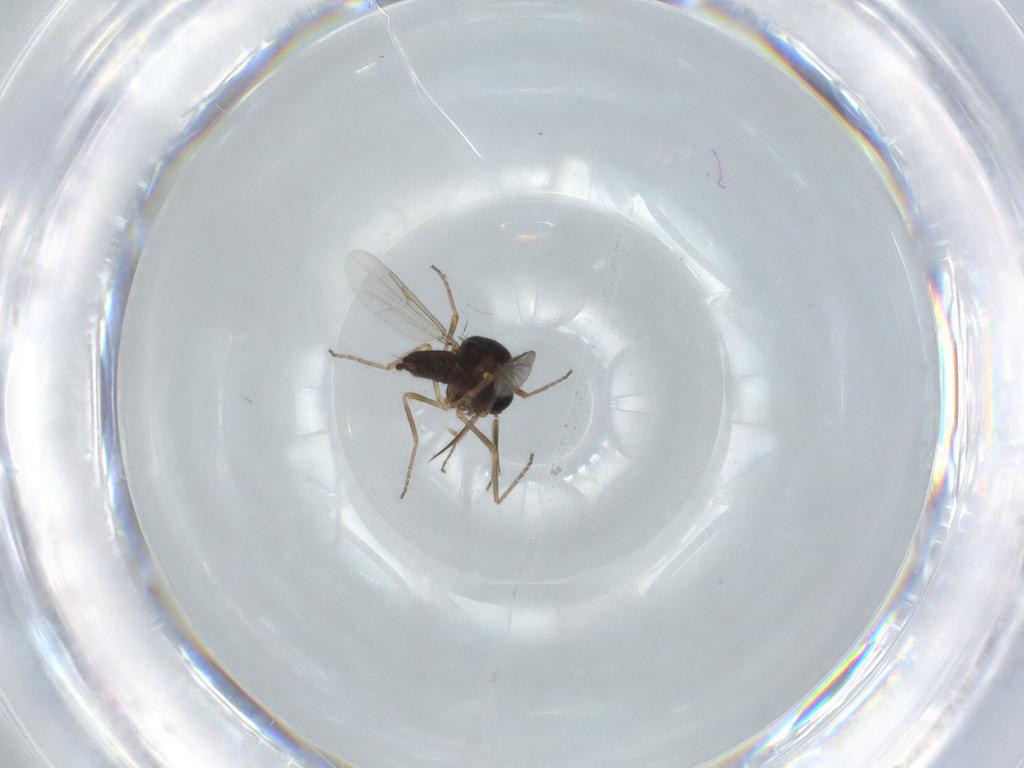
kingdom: Animalia
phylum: Arthropoda
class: Insecta
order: Diptera
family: Ceratopogonidae
